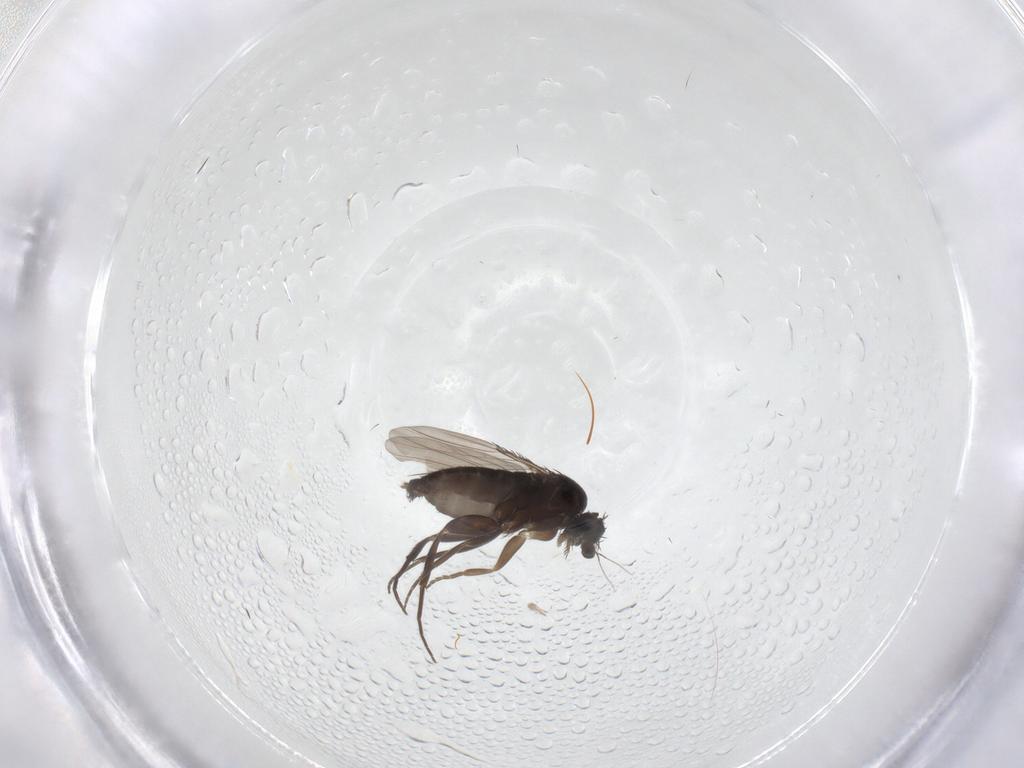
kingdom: Animalia
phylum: Arthropoda
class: Insecta
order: Diptera
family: Phoridae
